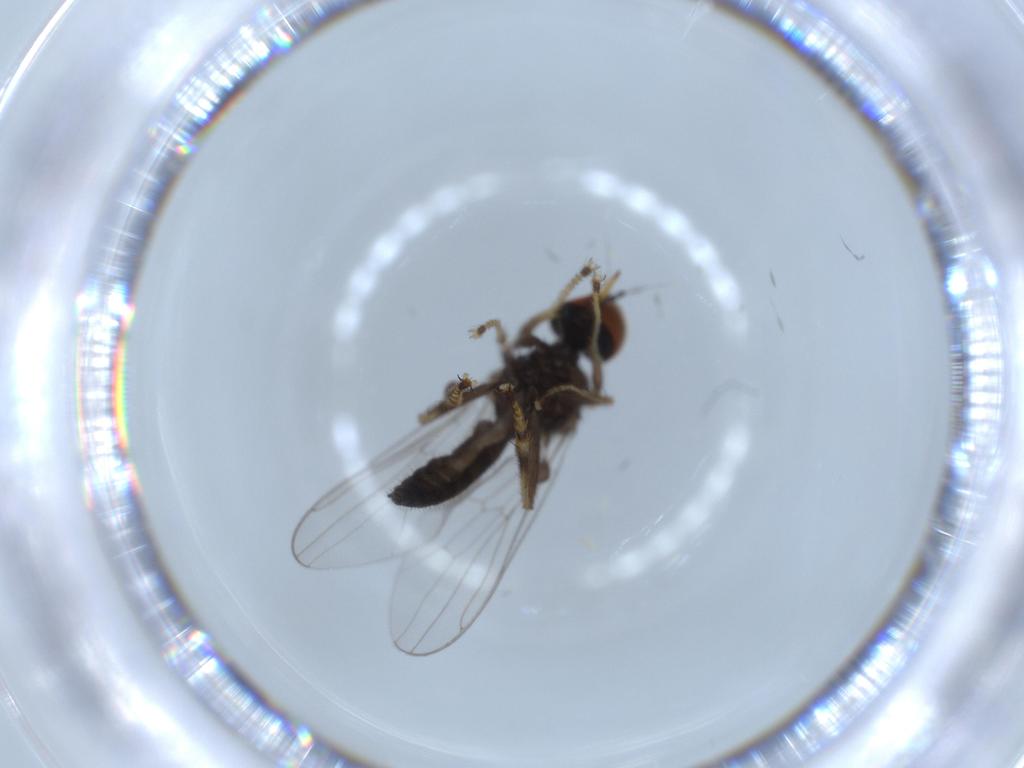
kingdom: Animalia
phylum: Arthropoda
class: Insecta
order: Diptera
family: Hybotidae
